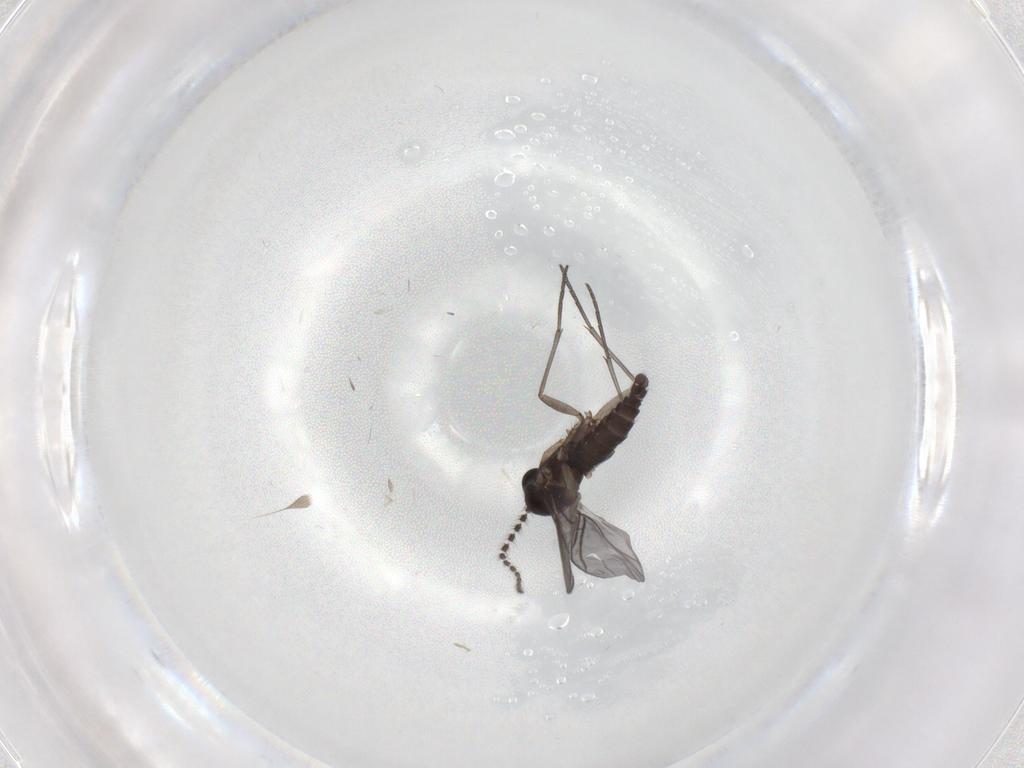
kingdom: Animalia
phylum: Arthropoda
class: Insecta
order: Diptera
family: Sciaridae
